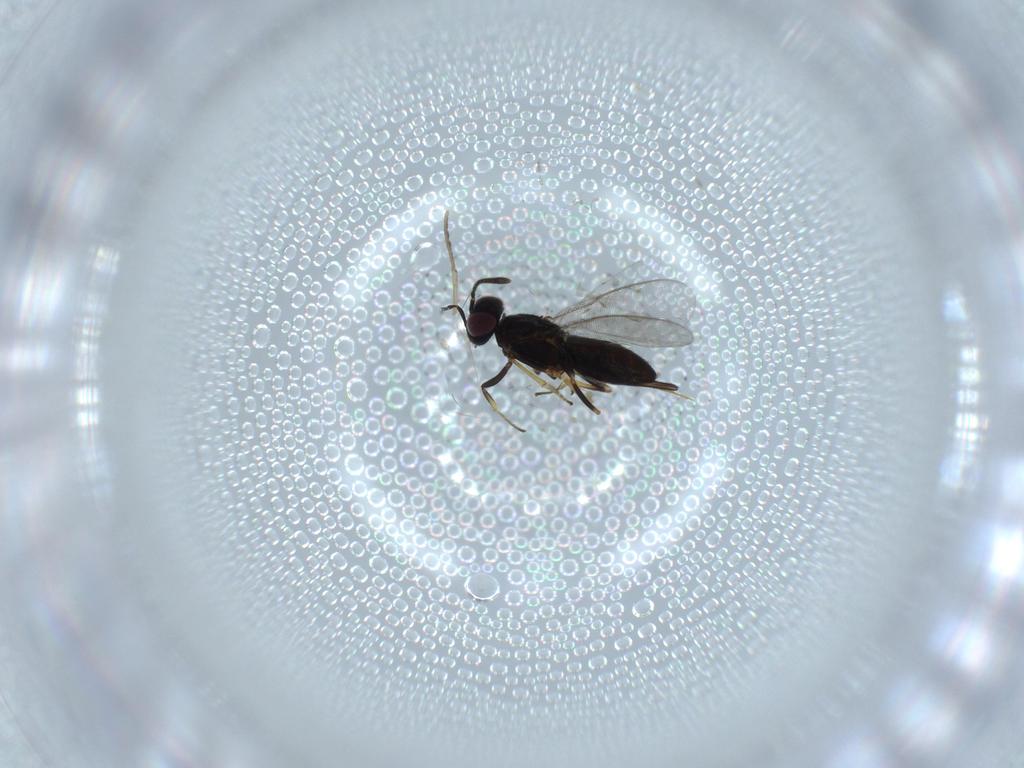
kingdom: Animalia
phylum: Arthropoda
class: Insecta
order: Hymenoptera
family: Eupelmidae
